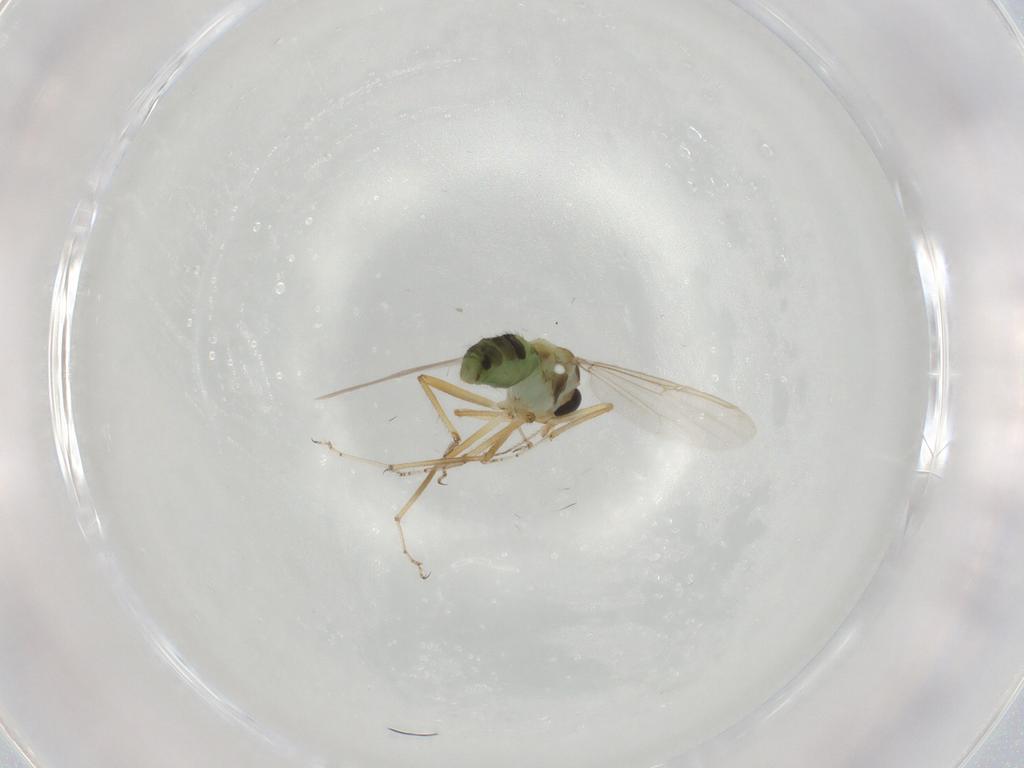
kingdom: Animalia
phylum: Arthropoda
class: Insecta
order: Diptera
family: Ceratopogonidae
